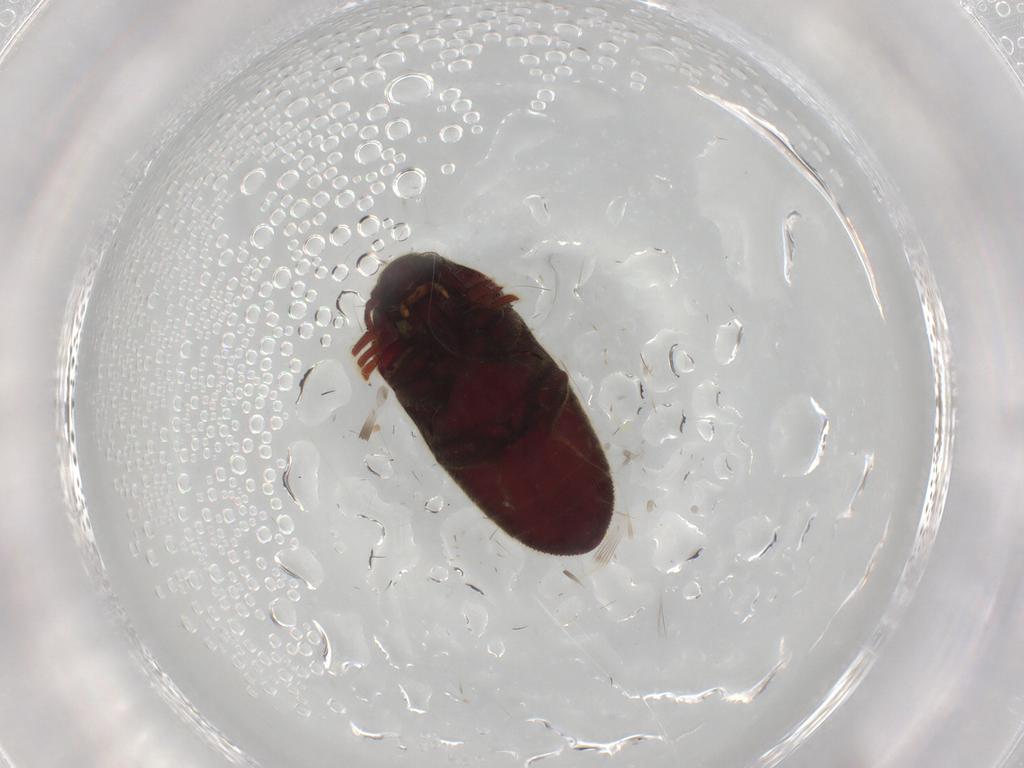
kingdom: Animalia
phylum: Arthropoda
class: Insecta
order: Coleoptera
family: Throscidae
